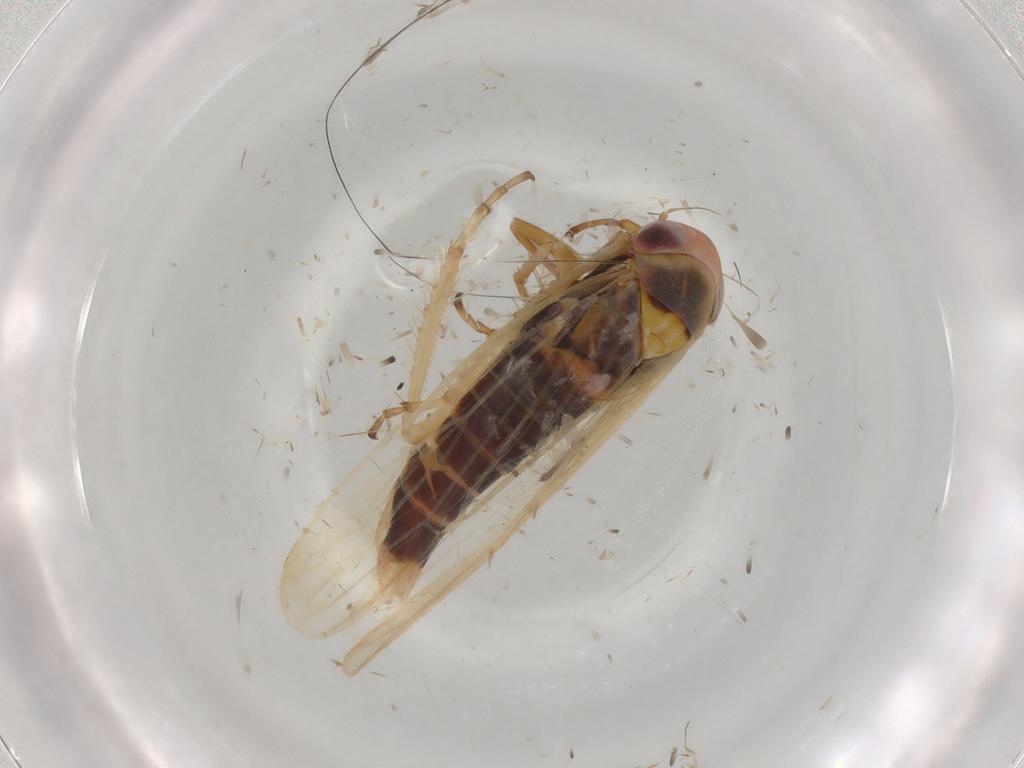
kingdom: Animalia
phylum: Arthropoda
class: Insecta
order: Hemiptera
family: Cicadellidae
